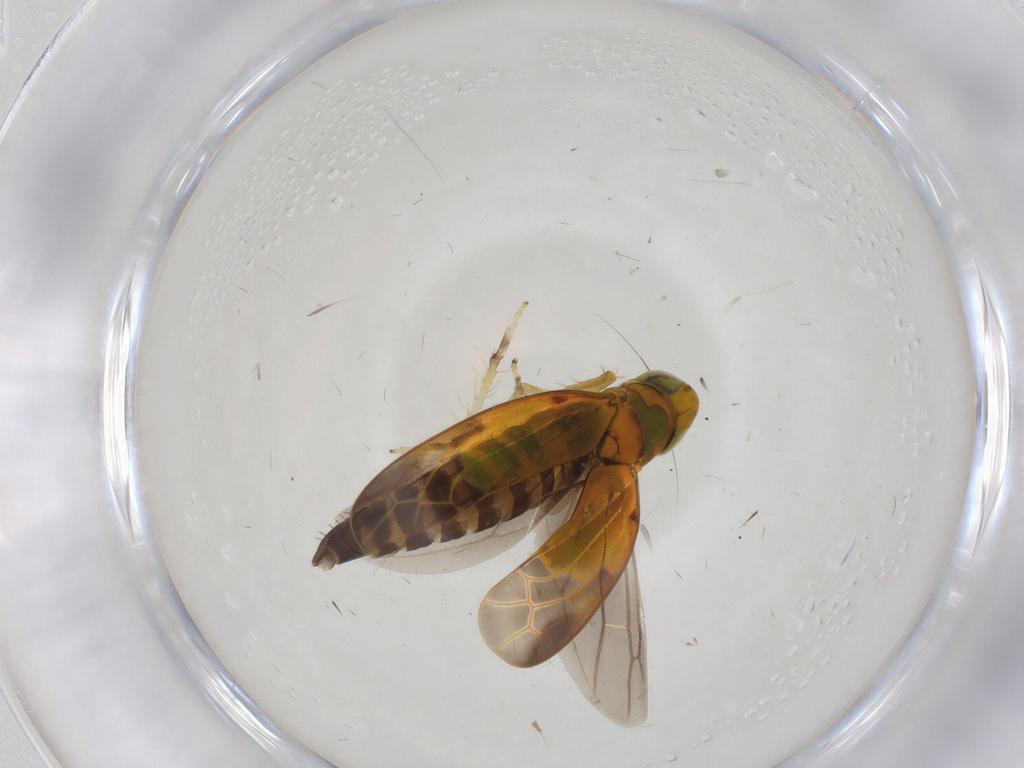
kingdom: Animalia
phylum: Arthropoda
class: Insecta
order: Hemiptera
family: Cicadellidae
